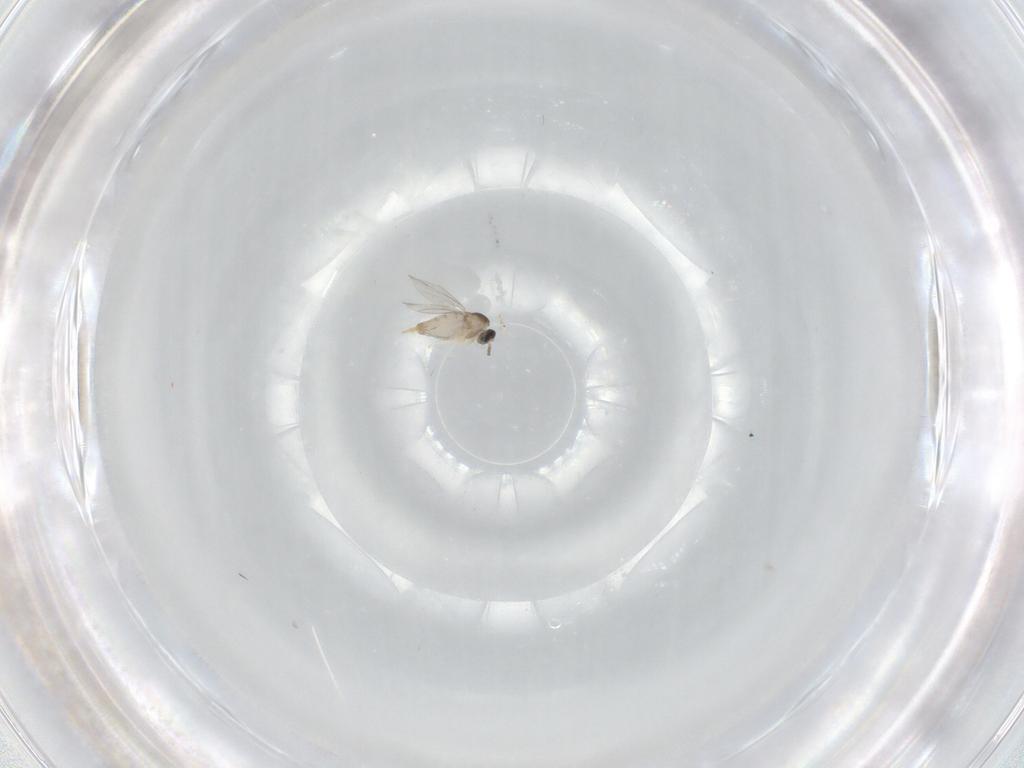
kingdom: Animalia
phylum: Arthropoda
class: Insecta
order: Diptera
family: Cecidomyiidae
